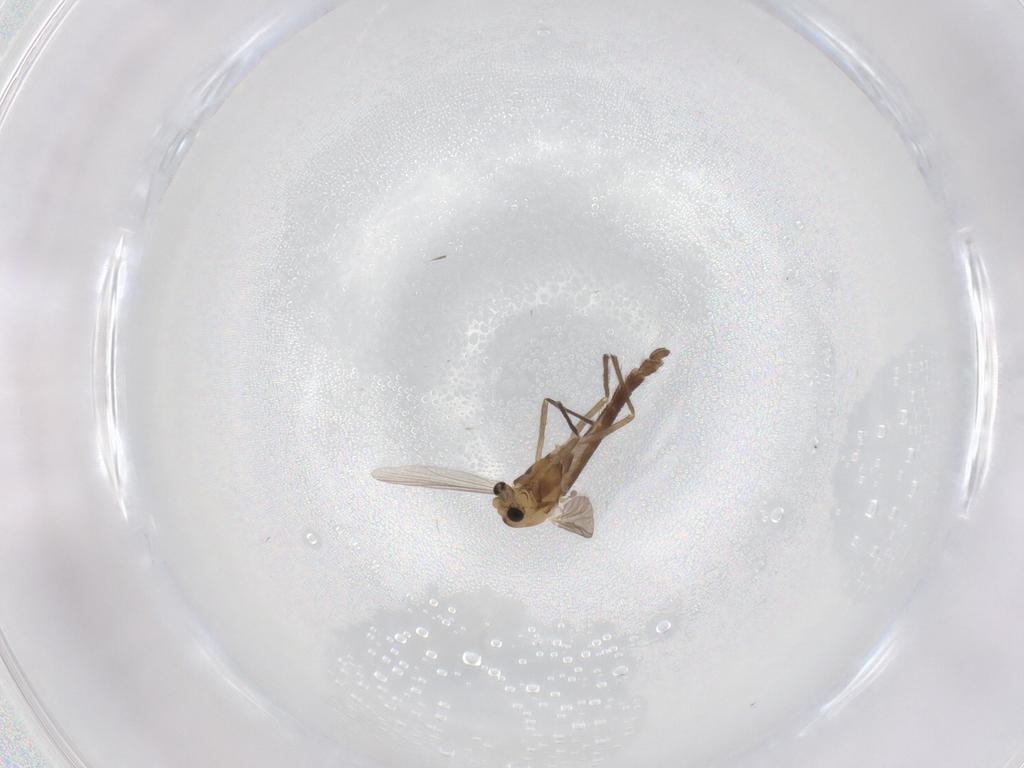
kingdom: Animalia
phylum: Arthropoda
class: Insecta
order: Diptera
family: Chironomidae
